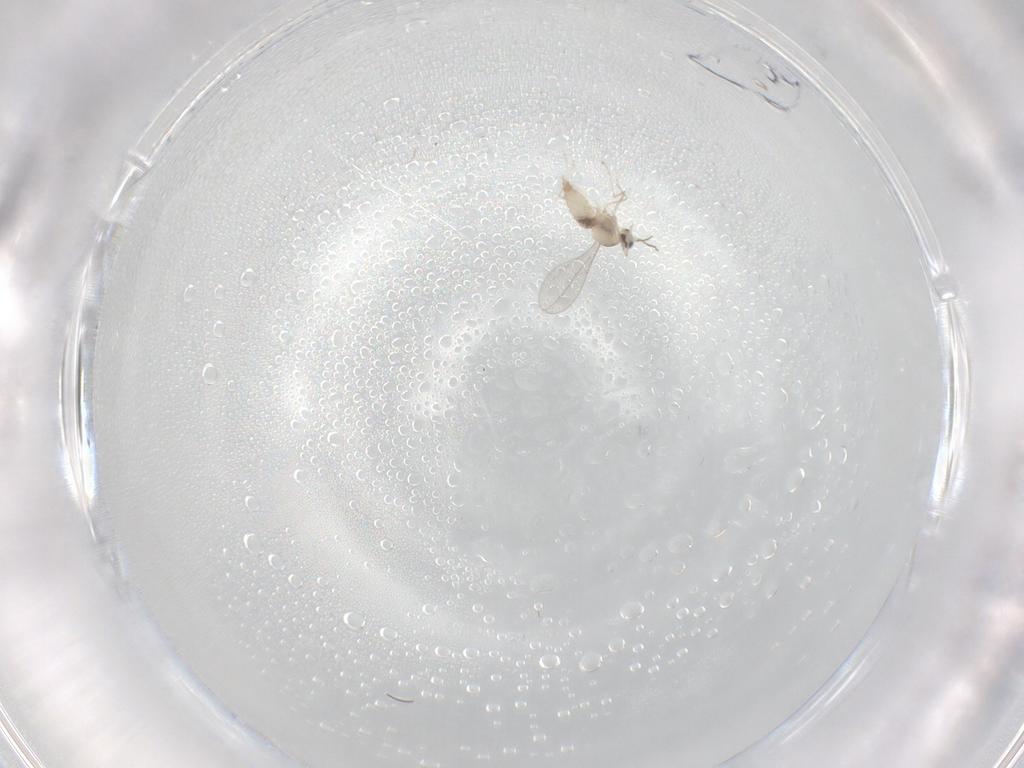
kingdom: Animalia
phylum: Arthropoda
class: Insecta
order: Diptera
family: Cecidomyiidae
